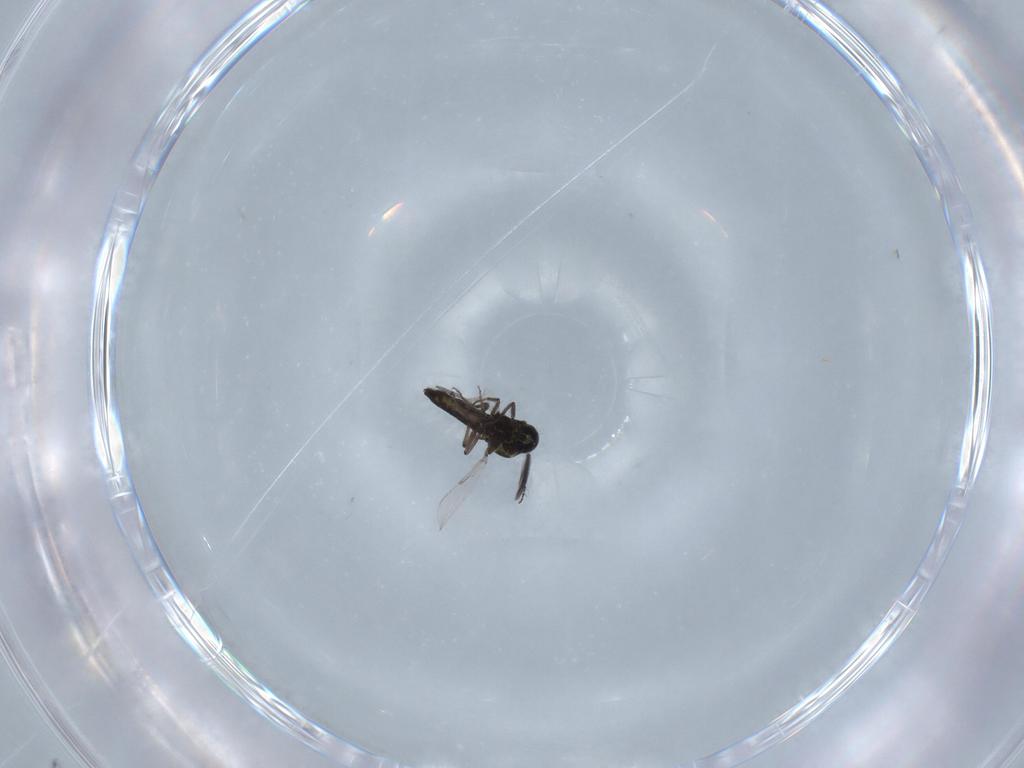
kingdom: Animalia
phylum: Arthropoda
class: Insecta
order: Diptera
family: Ceratopogonidae
